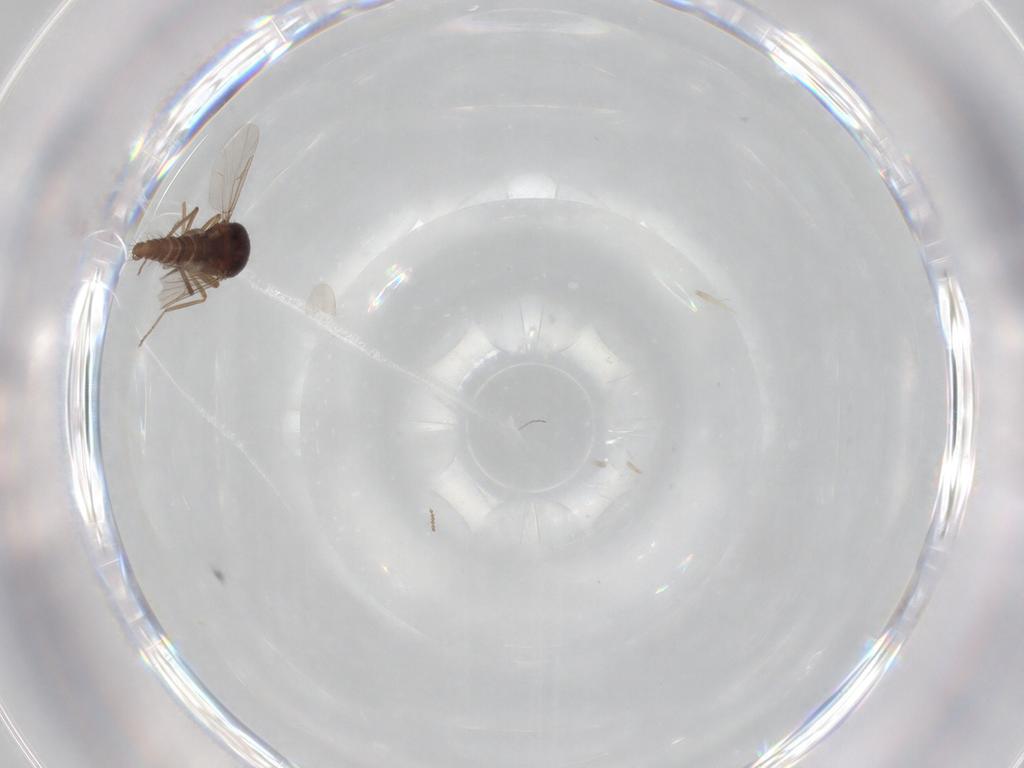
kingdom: Animalia
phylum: Arthropoda
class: Insecta
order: Diptera
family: Ceratopogonidae
